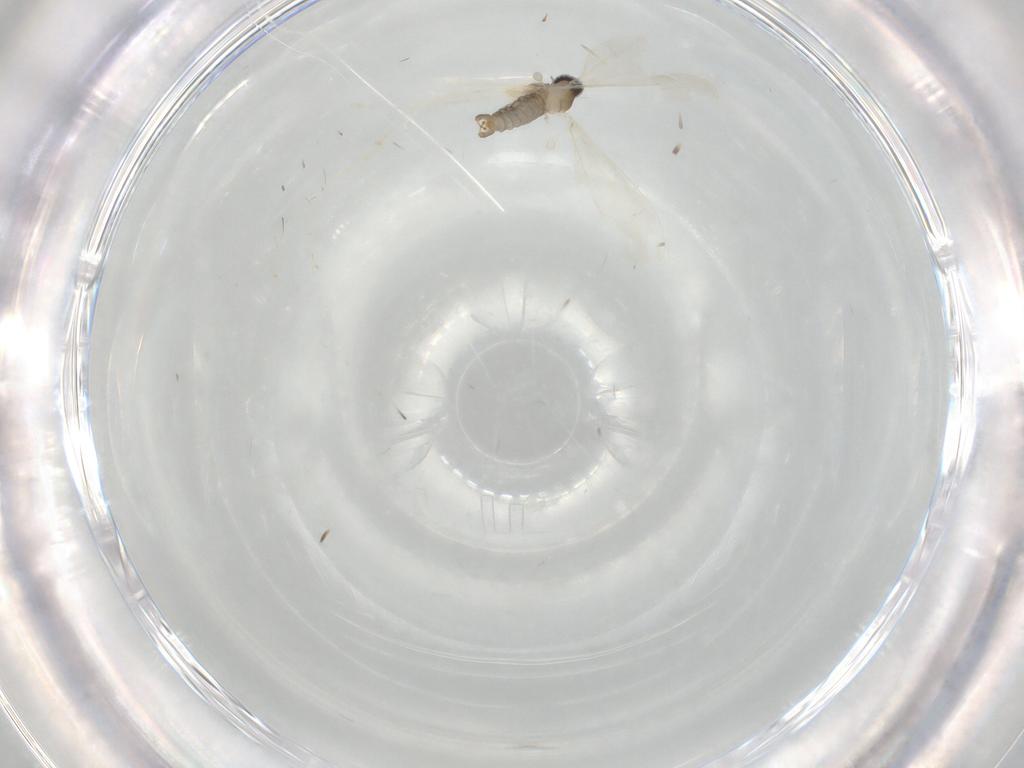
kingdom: Animalia
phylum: Arthropoda
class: Insecta
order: Diptera
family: Cecidomyiidae
